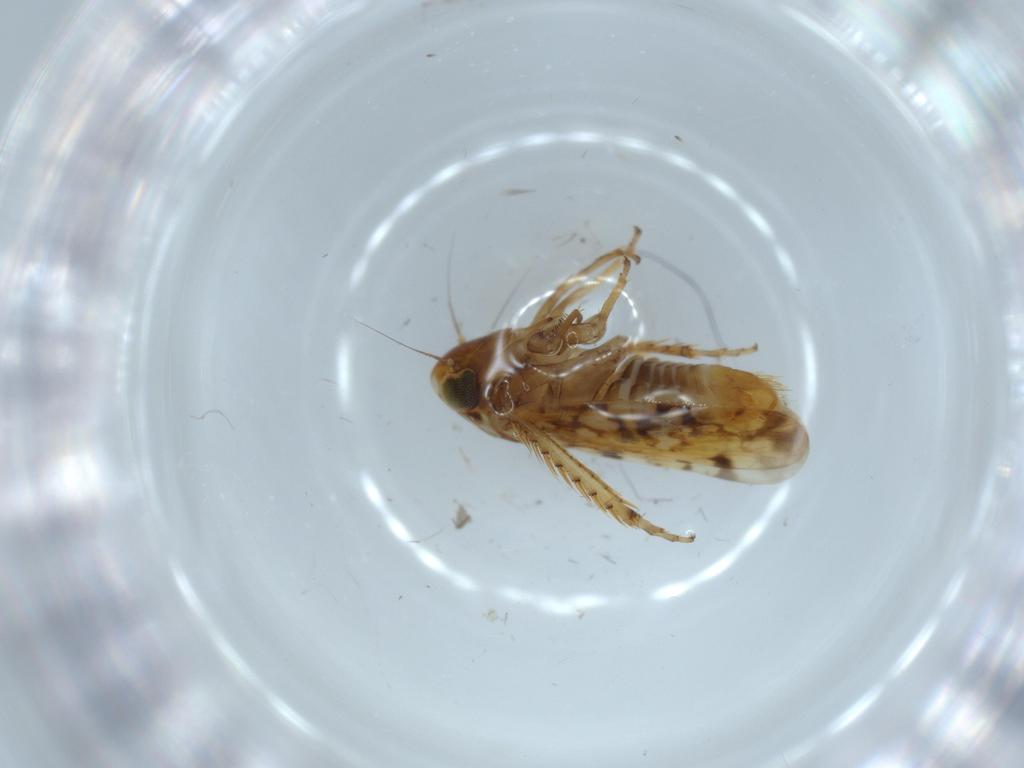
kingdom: Animalia
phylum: Arthropoda
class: Insecta
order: Hemiptera
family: Cicadellidae
